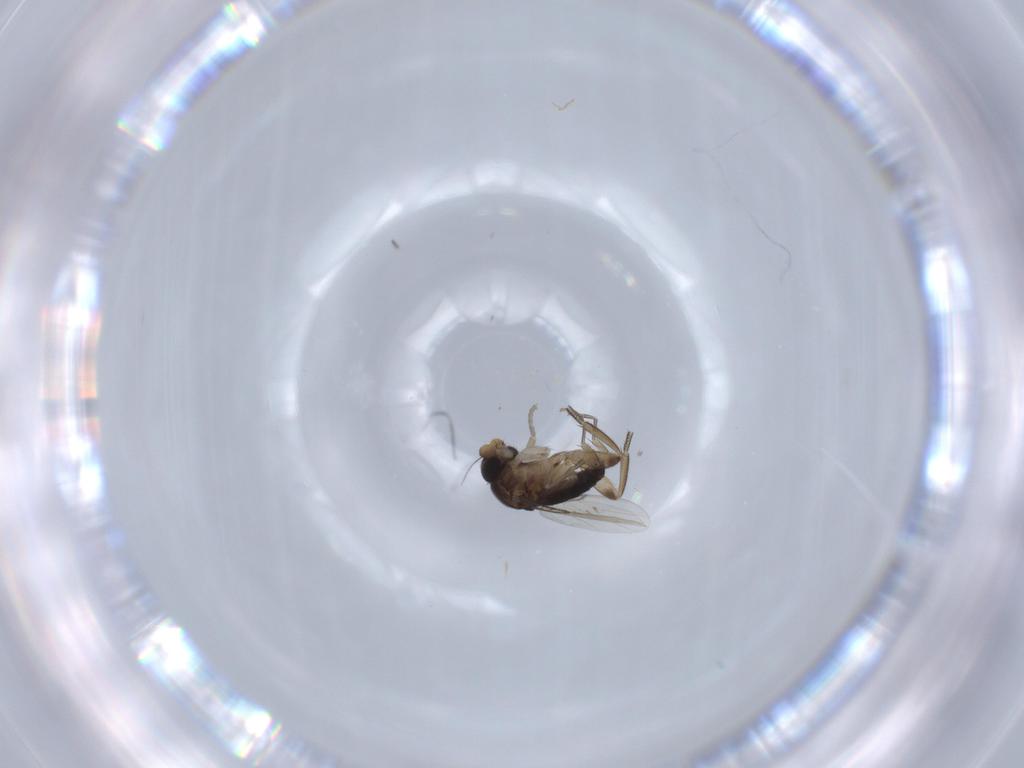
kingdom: Animalia
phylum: Arthropoda
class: Insecta
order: Diptera
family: Phoridae
